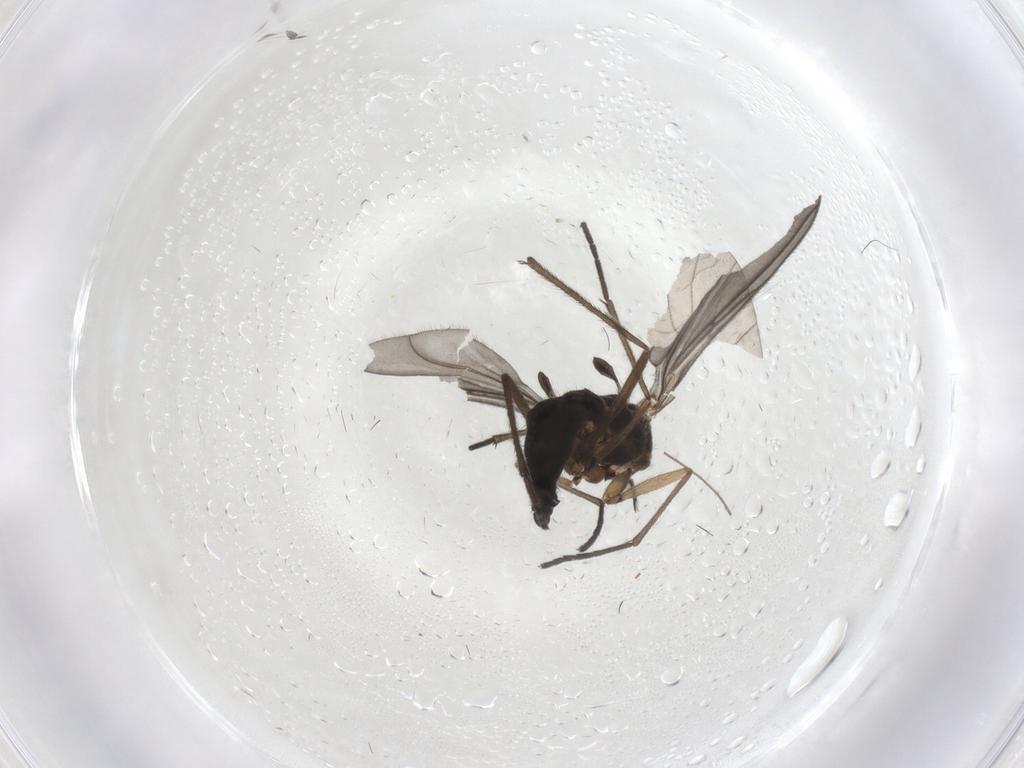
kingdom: Animalia
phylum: Arthropoda
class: Insecta
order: Diptera
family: Sciaridae
